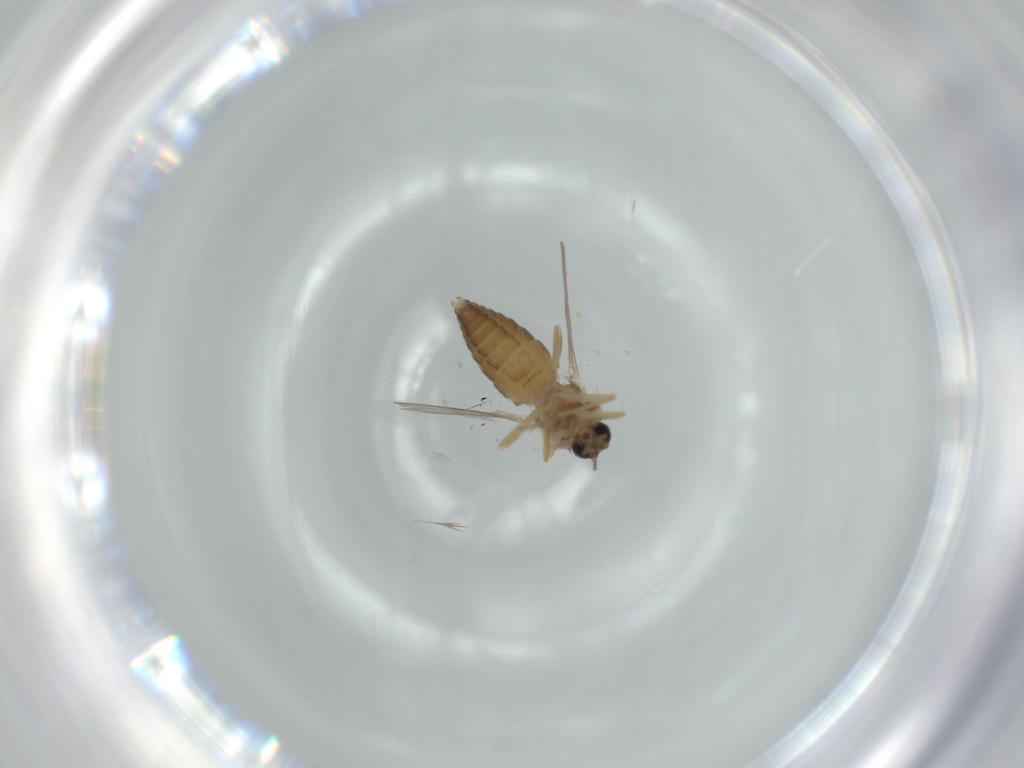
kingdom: Animalia
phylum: Arthropoda
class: Insecta
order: Diptera
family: Ceratopogonidae
